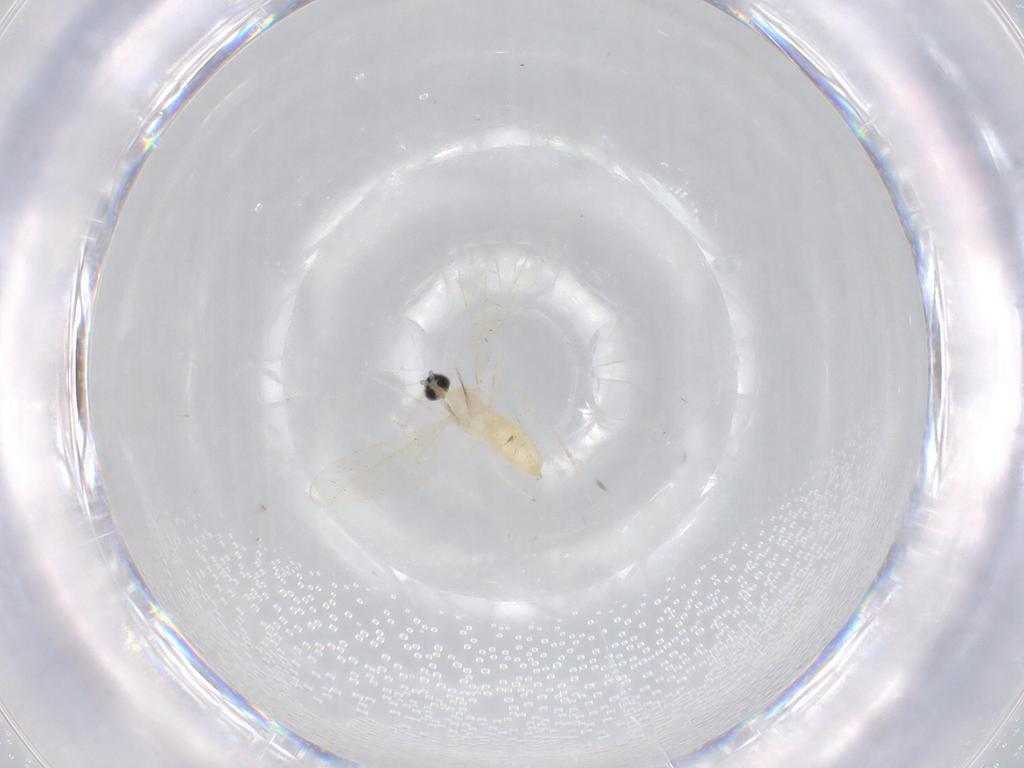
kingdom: Animalia
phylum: Arthropoda
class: Insecta
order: Diptera
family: Cecidomyiidae
